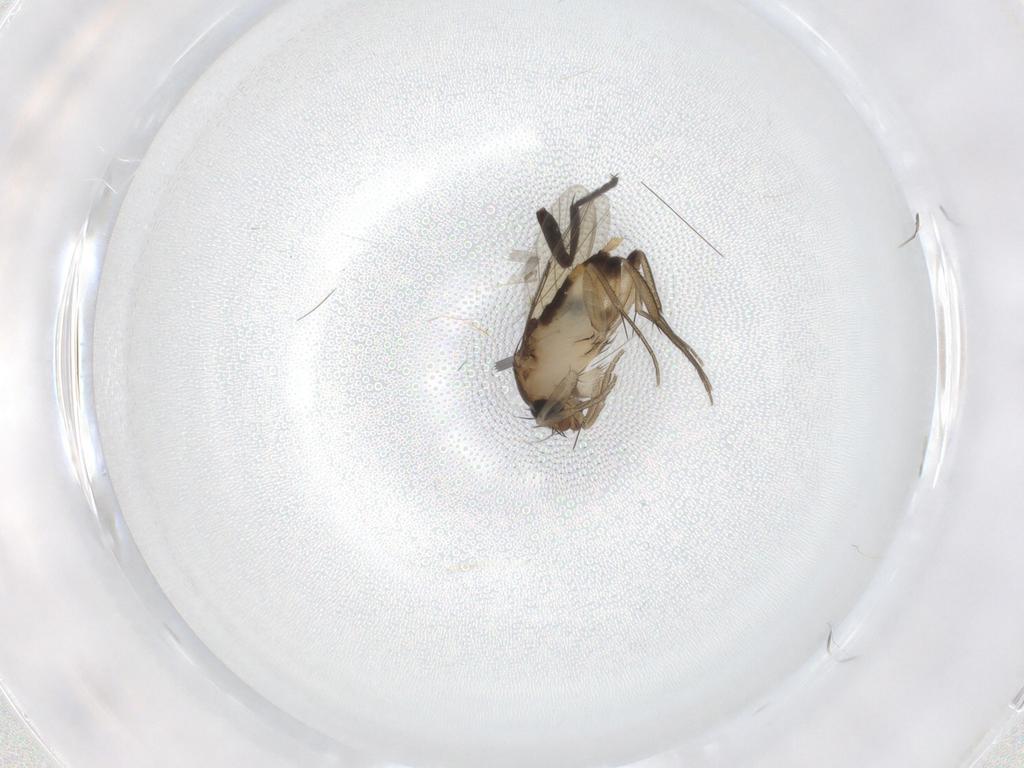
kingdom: Animalia
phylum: Arthropoda
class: Insecta
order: Diptera
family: Phoridae
